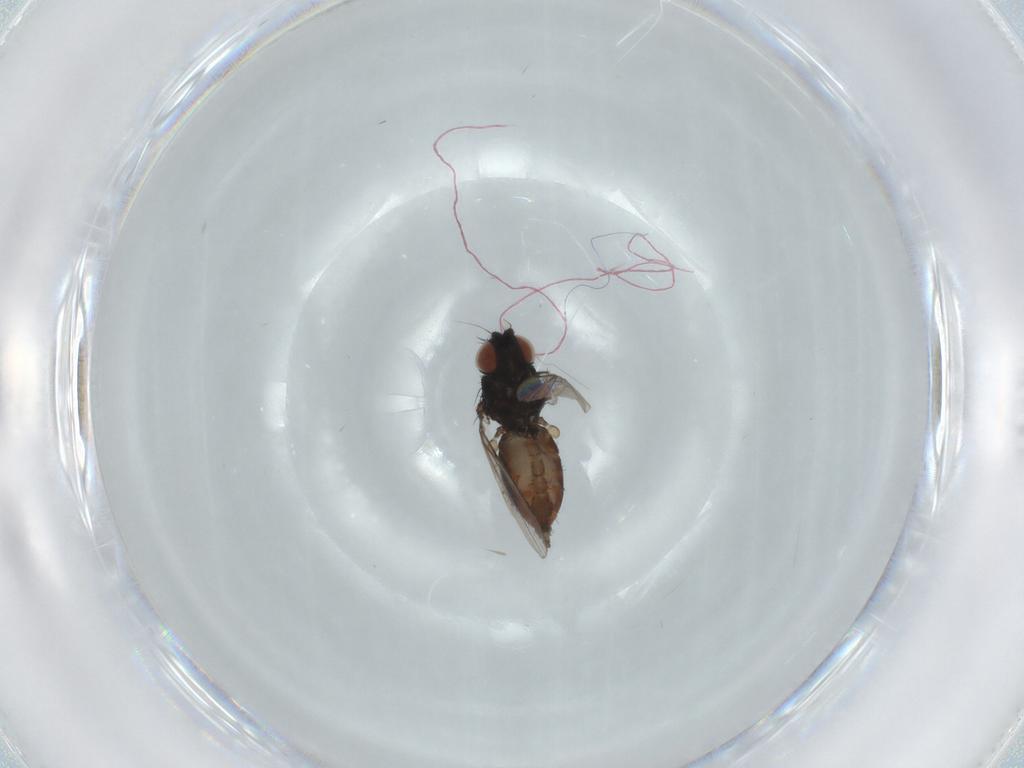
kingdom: Animalia
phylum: Arthropoda
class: Insecta
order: Diptera
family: Milichiidae
